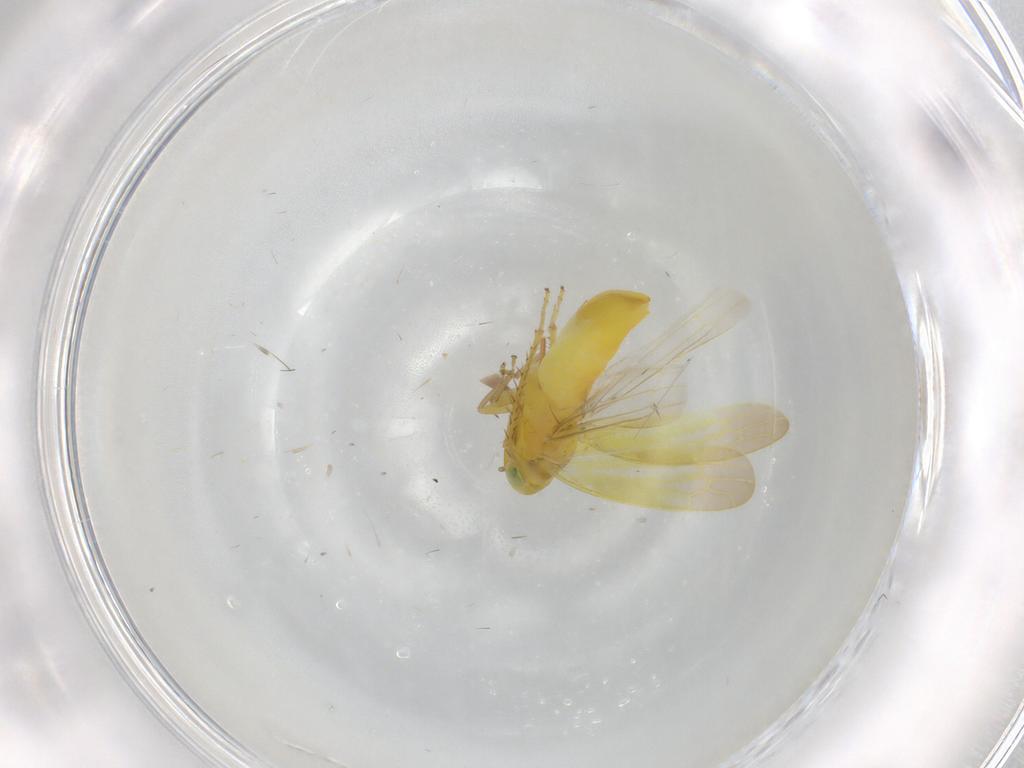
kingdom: Animalia
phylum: Arthropoda
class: Insecta
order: Hemiptera
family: Cicadellidae
